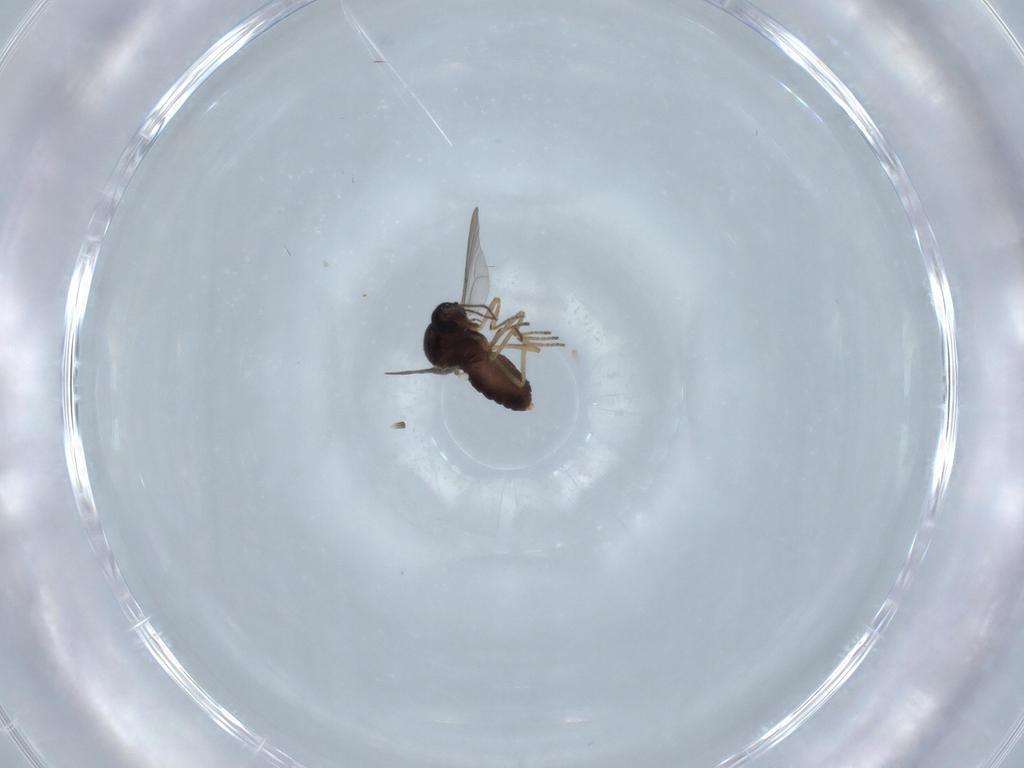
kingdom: Animalia
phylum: Arthropoda
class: Insecta
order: Diptera
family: Ceratopogonidae
